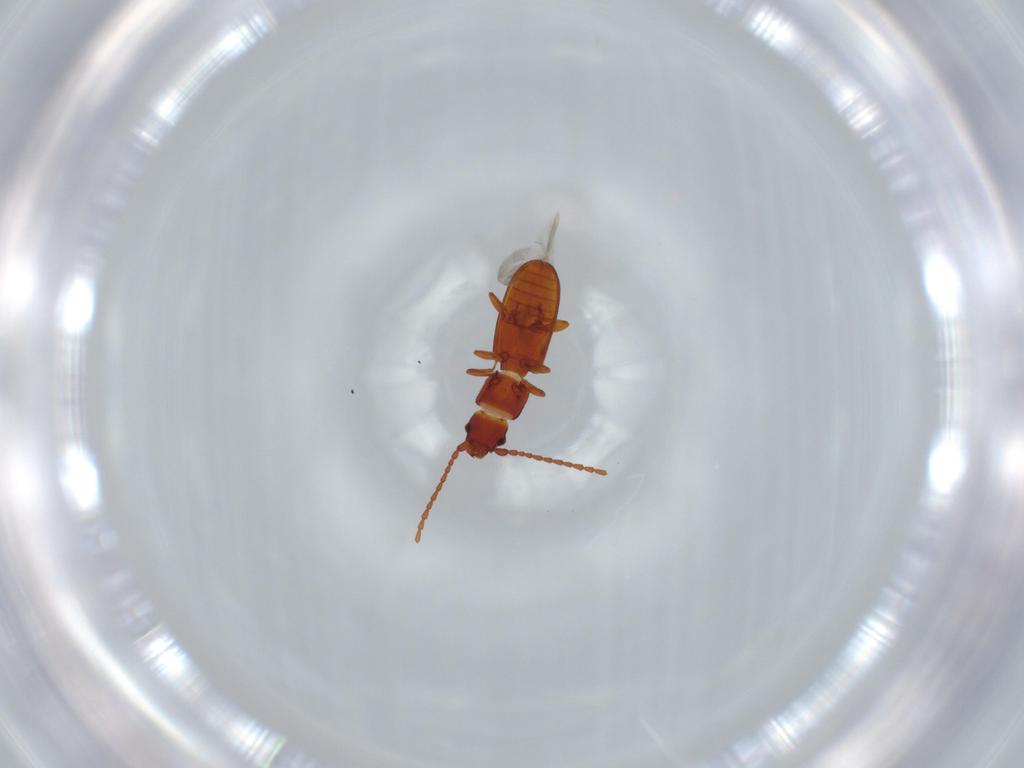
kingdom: Animalia
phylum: Arthropoda
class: Insecta
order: Coleoptera
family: Laemophloeidae
